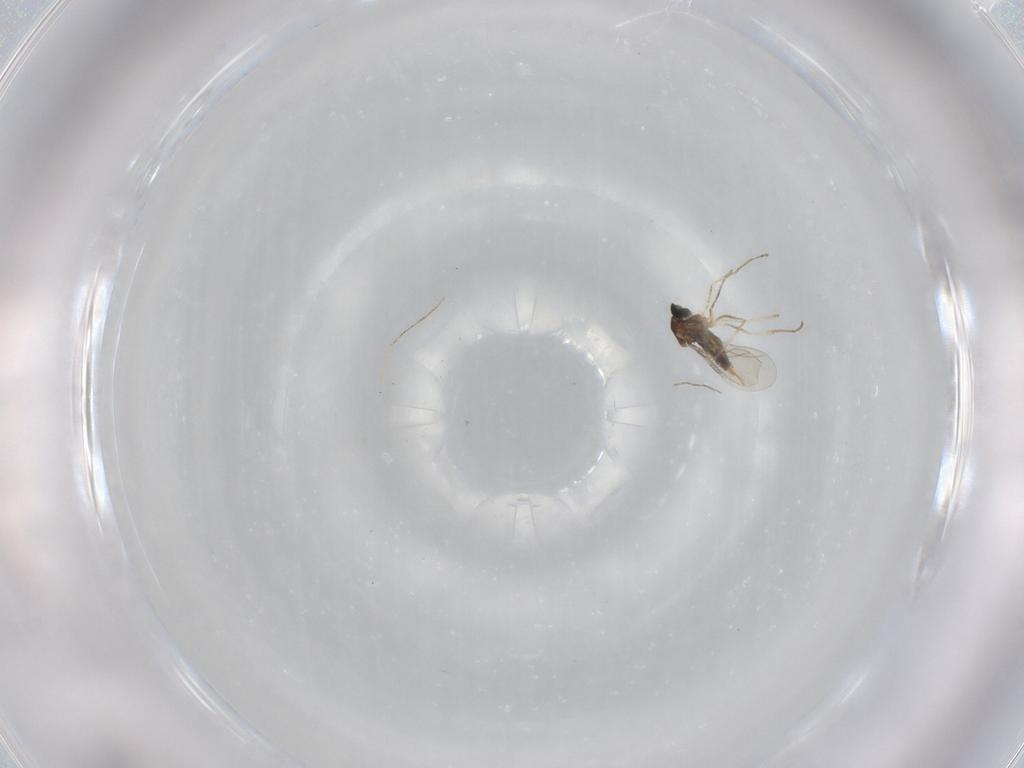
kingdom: Animalia
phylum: Arthropoda
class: Insecta
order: Diptera
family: Cecidomyiidae
